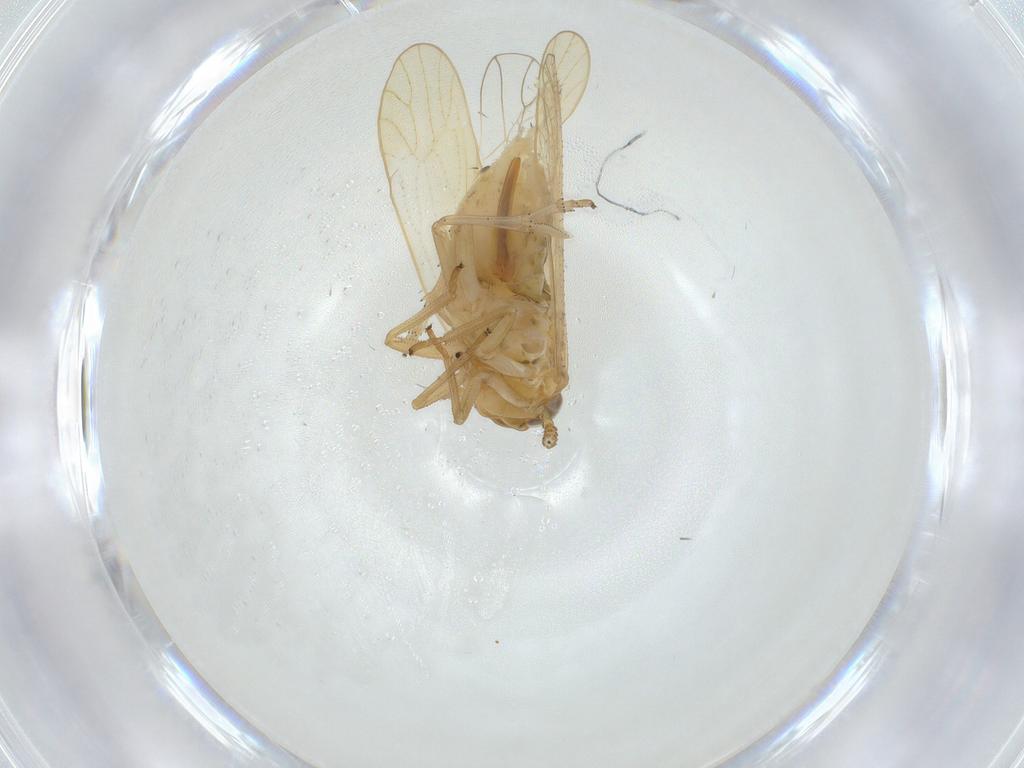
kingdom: Animalia
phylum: Arthropoda
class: Insecta
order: Hemiptera
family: Delphacidae
